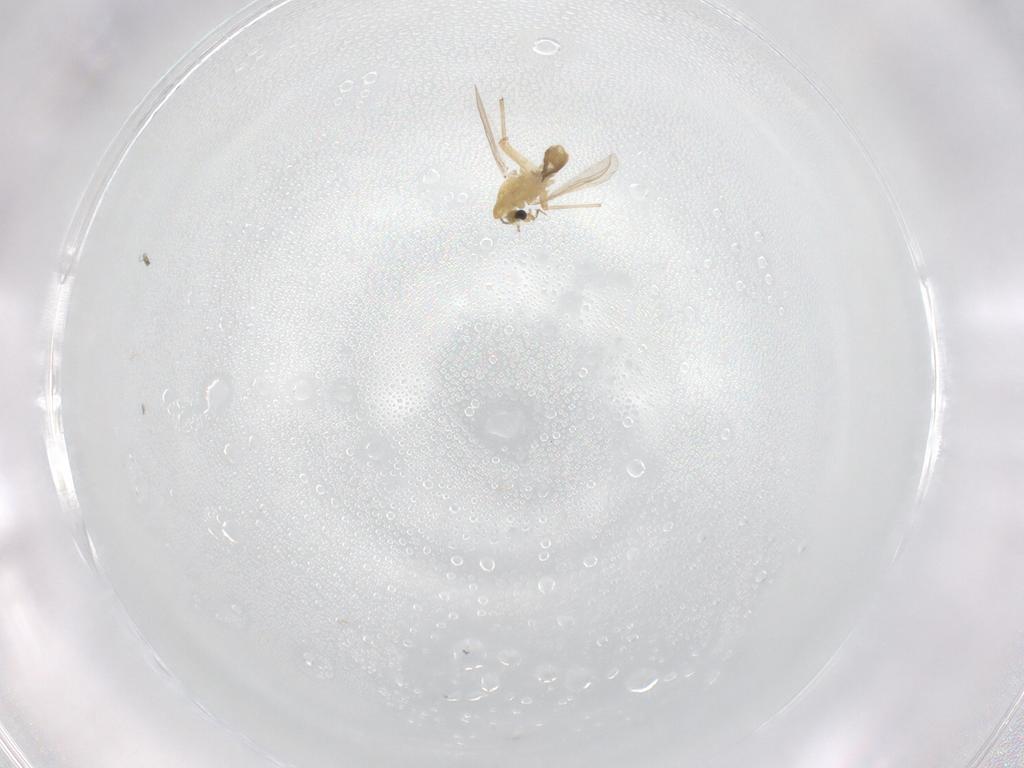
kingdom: Animalia
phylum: Arthropoda
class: Insecta
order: Diptera
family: Chironomidae
